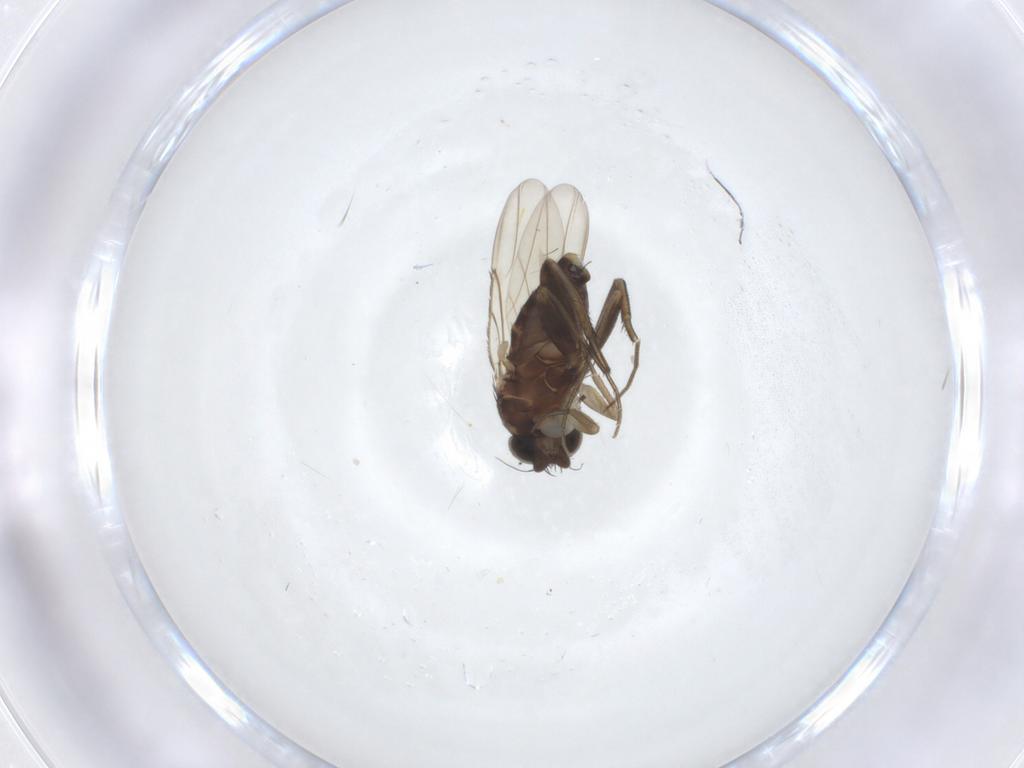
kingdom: Animalia
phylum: Arthropoda
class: Insecta
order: Diptera
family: Phoridae
